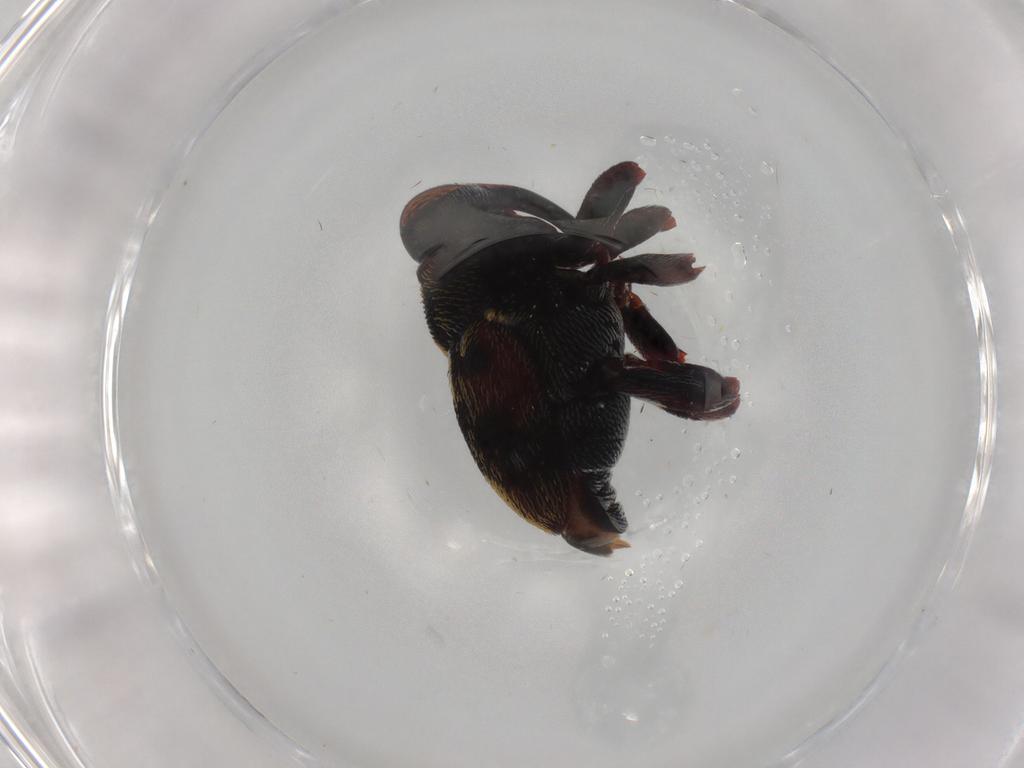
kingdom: Animalia
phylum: Arthropoda
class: Insecta
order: Coleoptera
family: Curculionidae
